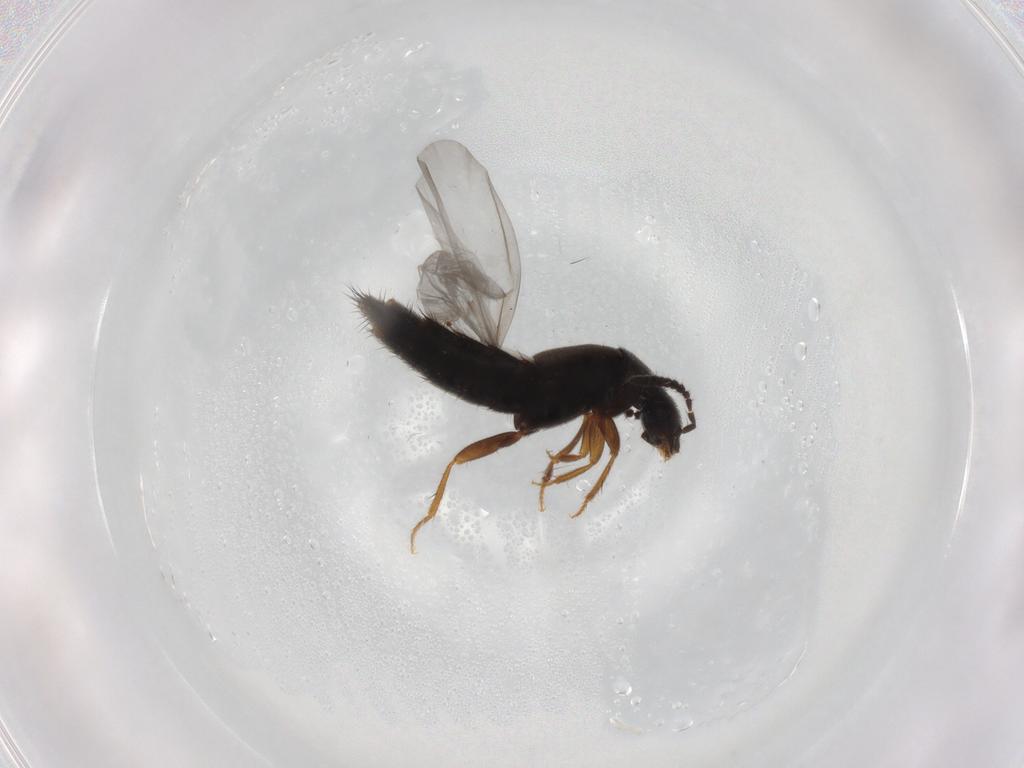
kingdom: Animalia
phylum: Arthropoda
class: Insecta
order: Coleoptera
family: Staphylinidae
